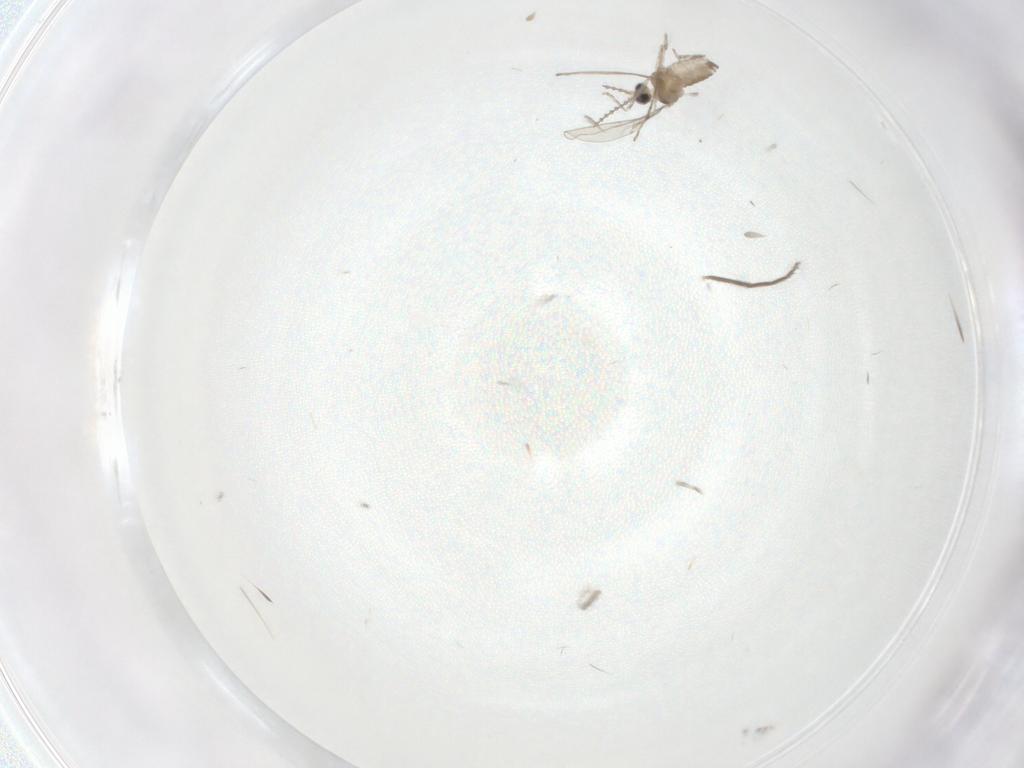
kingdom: Animalia
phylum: Arthropoda
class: Insecta
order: Diptera
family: Cecidomyiidae
